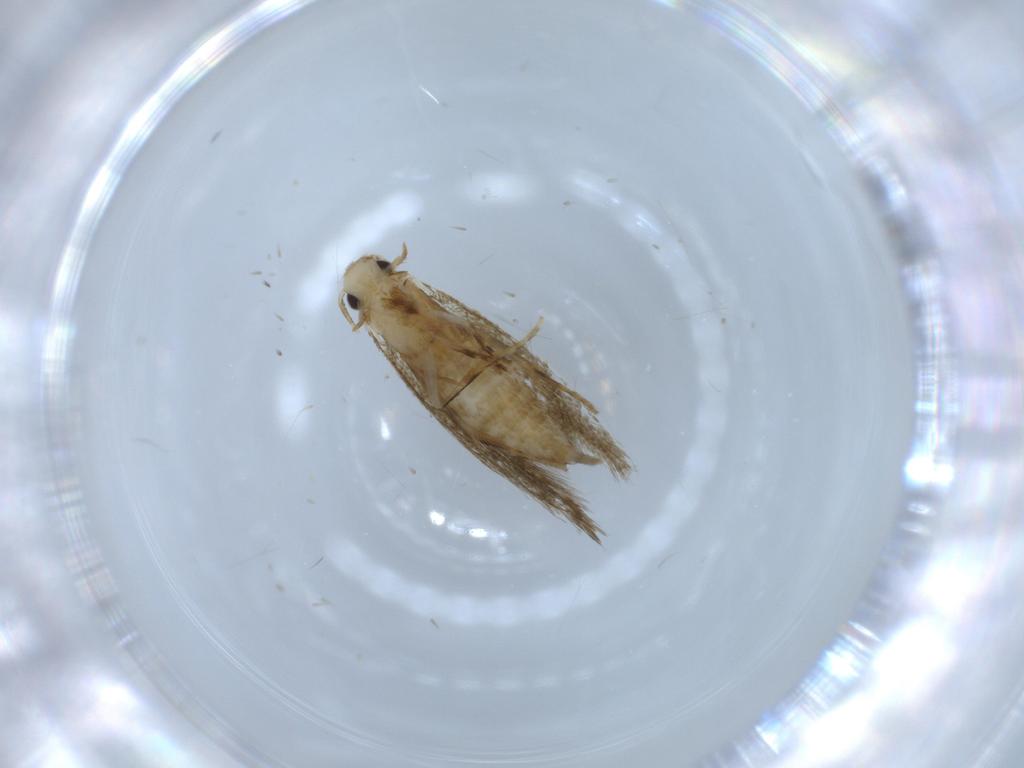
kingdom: Animalia
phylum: Arthropoda
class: Insecta
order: Lepidoptera
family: Tineidae
